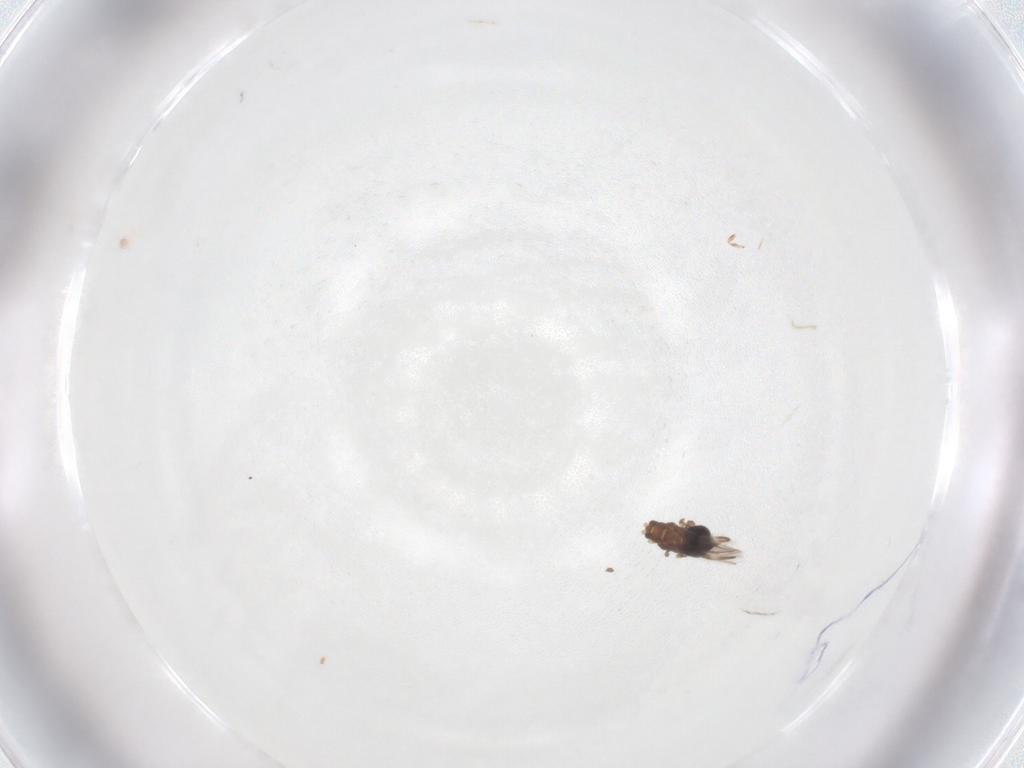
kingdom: Animalia
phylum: Arthropoda
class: Insecta
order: Thysanoptera
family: Thripidae
